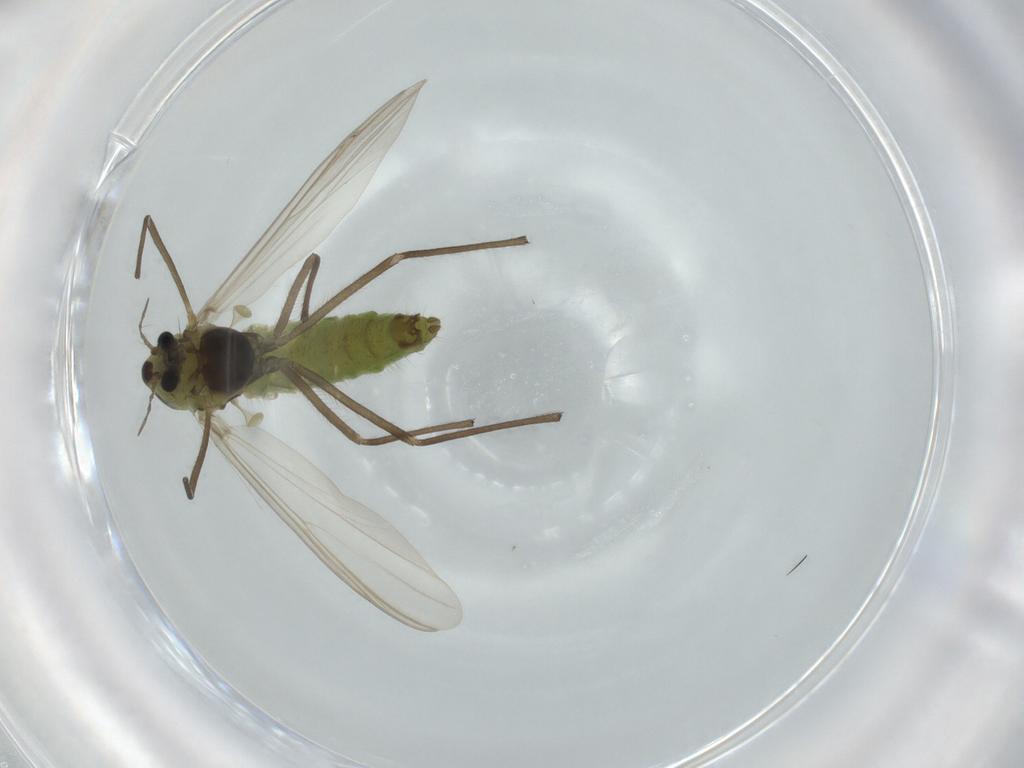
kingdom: Animalia
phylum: Arthropoda
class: Insecta
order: Diptera
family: Chironomidae
